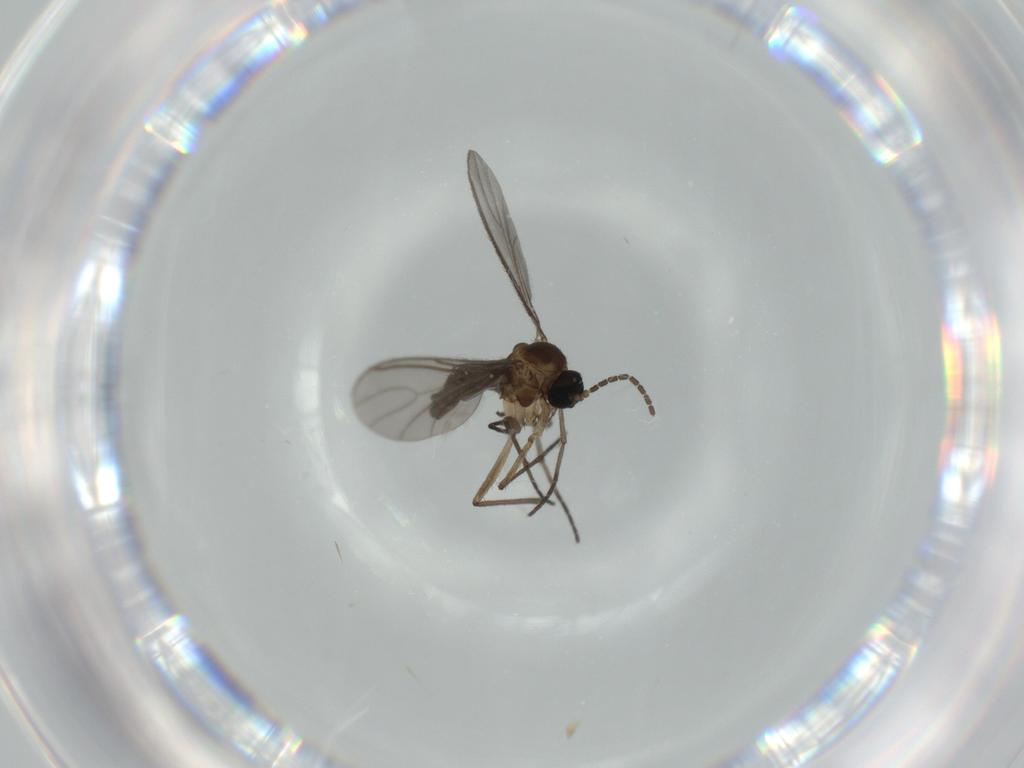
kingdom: Animalia
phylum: Arthropoda
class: Insecta
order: Diptera
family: Sciaridae
